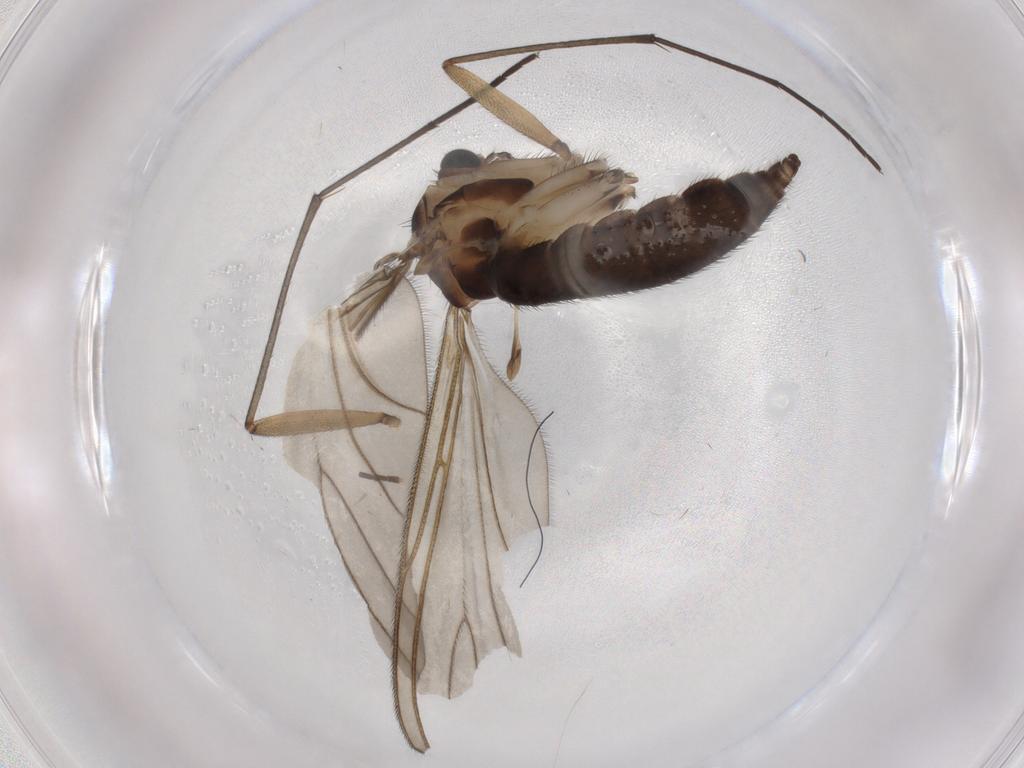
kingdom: Animalia
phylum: Arthropoda
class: Insecta
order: Diptera
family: Sciaridae
